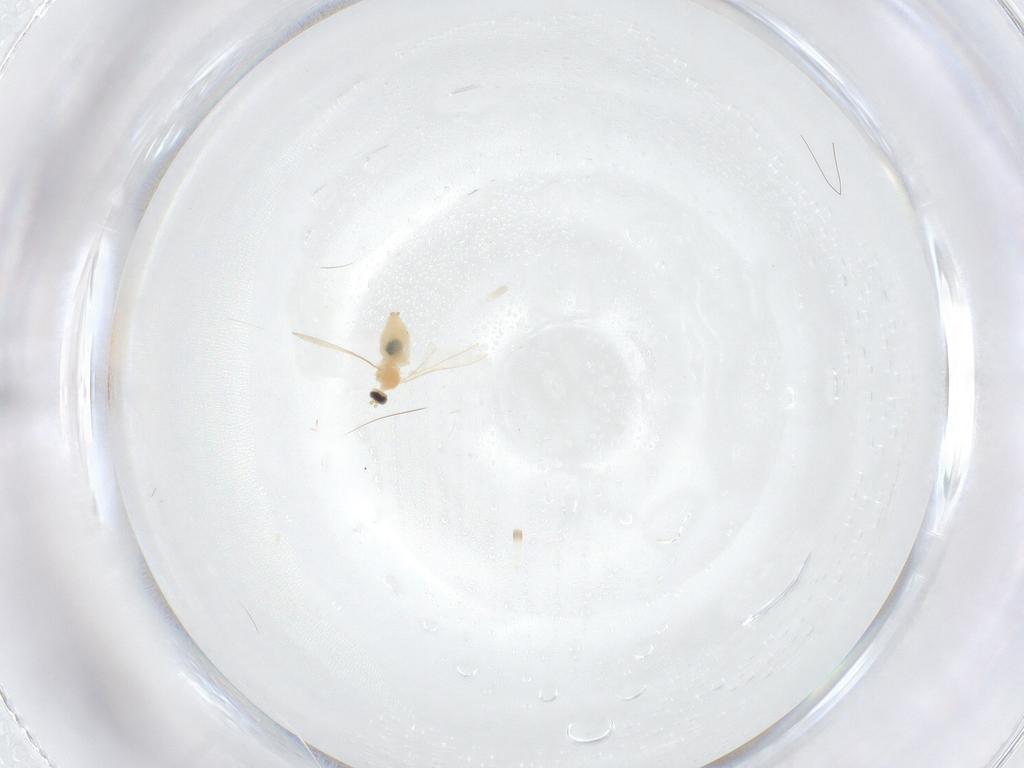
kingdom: Animalia
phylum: Arthropoda
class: Insecta
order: Diptera
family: Cecidomyiidae
